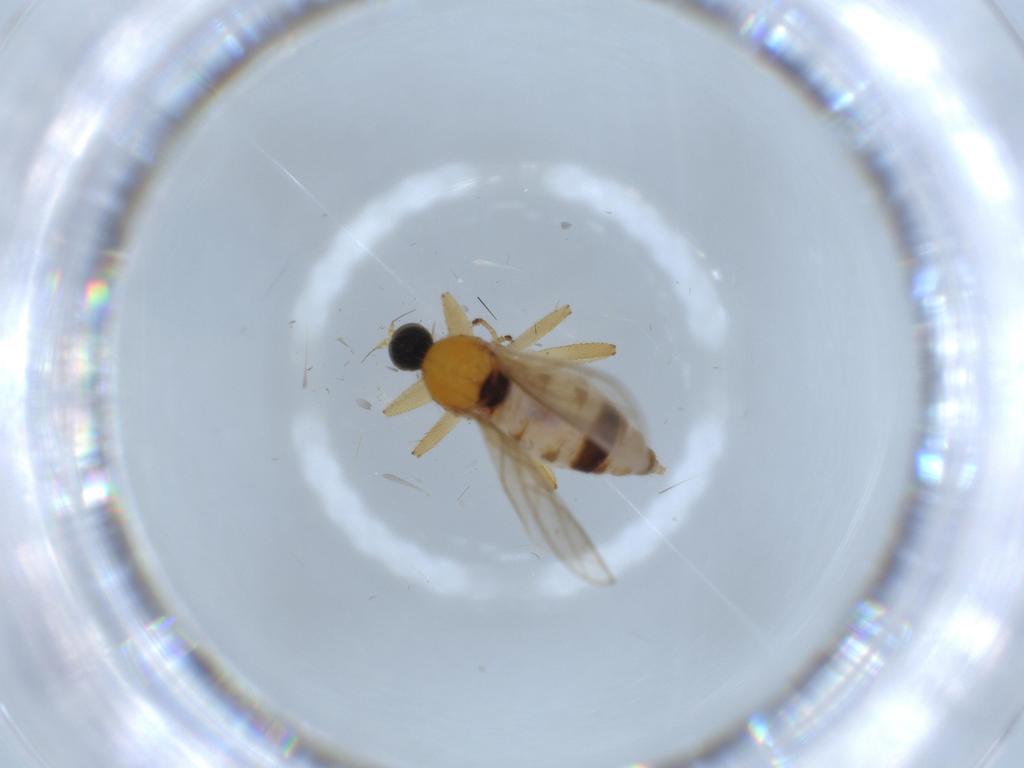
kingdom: Animalia
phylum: Arthropoda
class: Insecta
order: Diptera
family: Hybotidae
